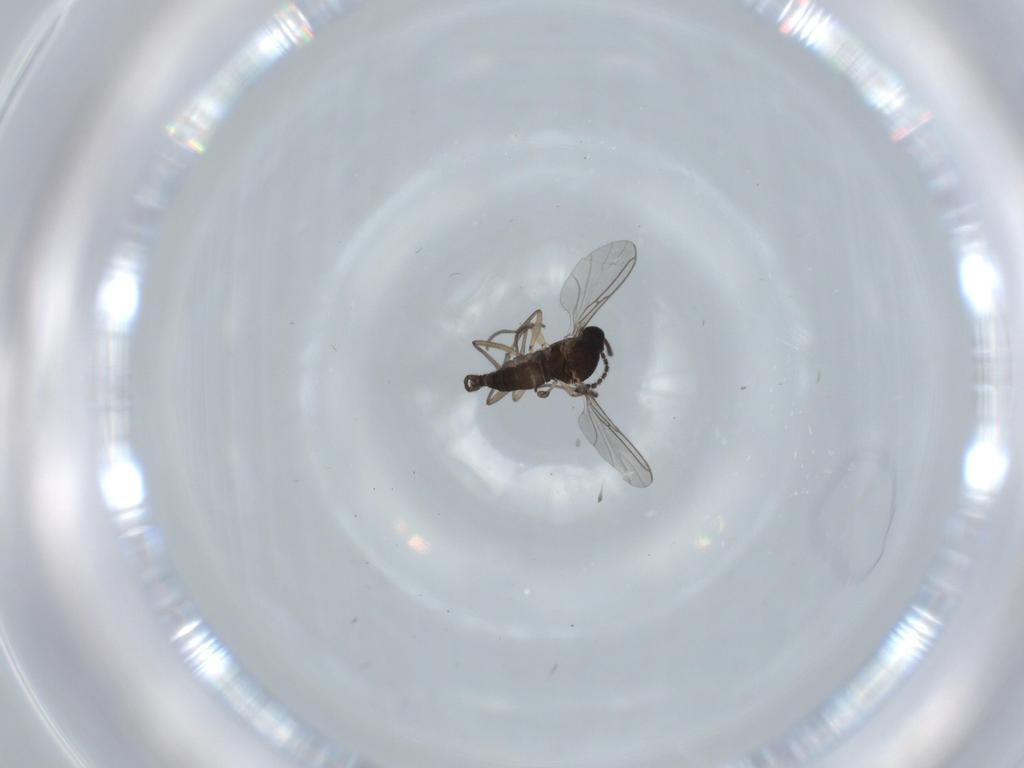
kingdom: Animalia
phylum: Arthropoda
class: Insecta
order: Diptera
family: Sciaridae
